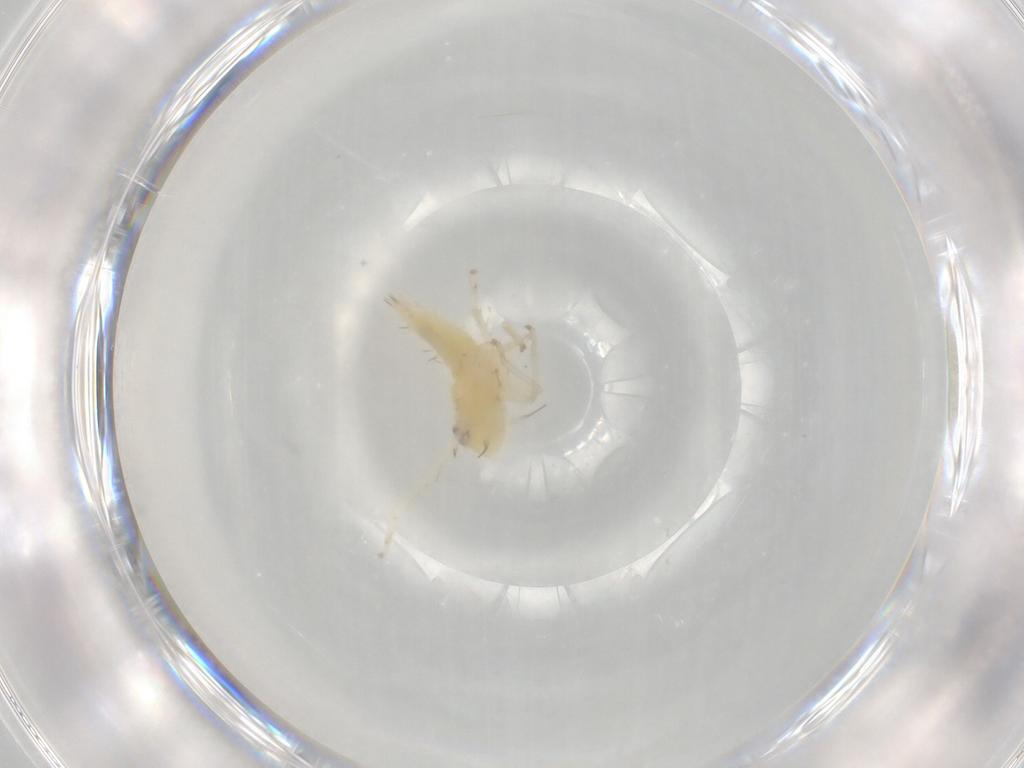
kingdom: Animalia
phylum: Arthropoda
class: Insecta
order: Hemiptera
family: Cicadellidae
